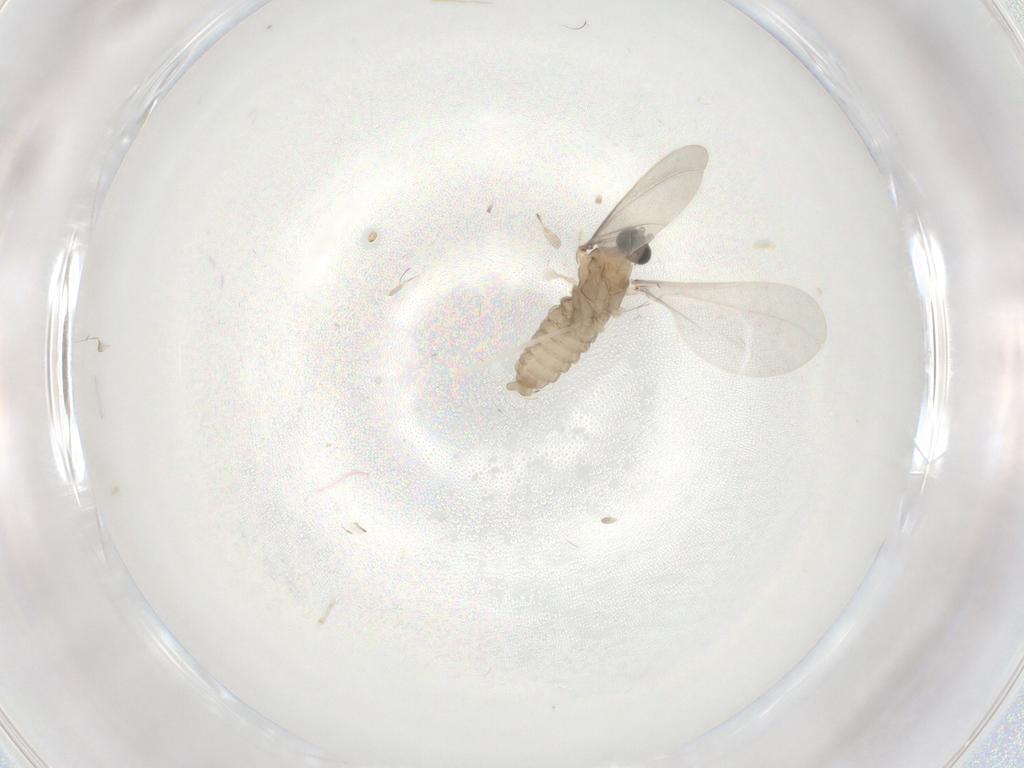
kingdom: Animalia
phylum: Arthropoda
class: Insecta
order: Diptera
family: Cecidomyiidae
